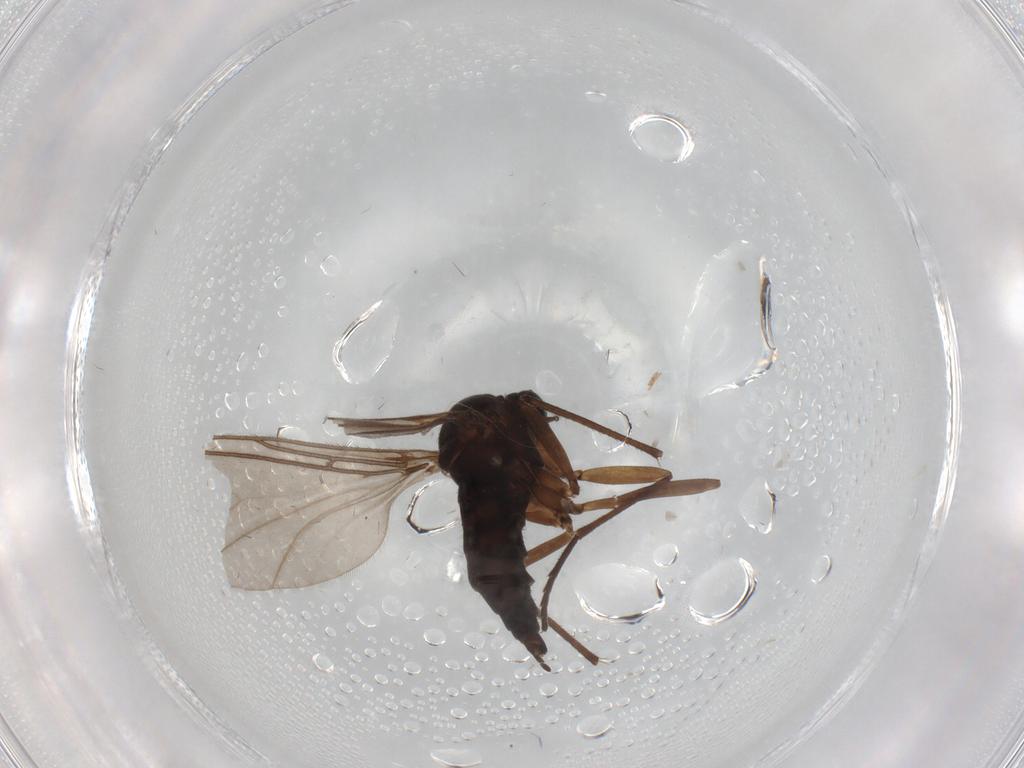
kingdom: Animalia
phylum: Arthropoda
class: Insecta
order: Diptera
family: Sciaridae
